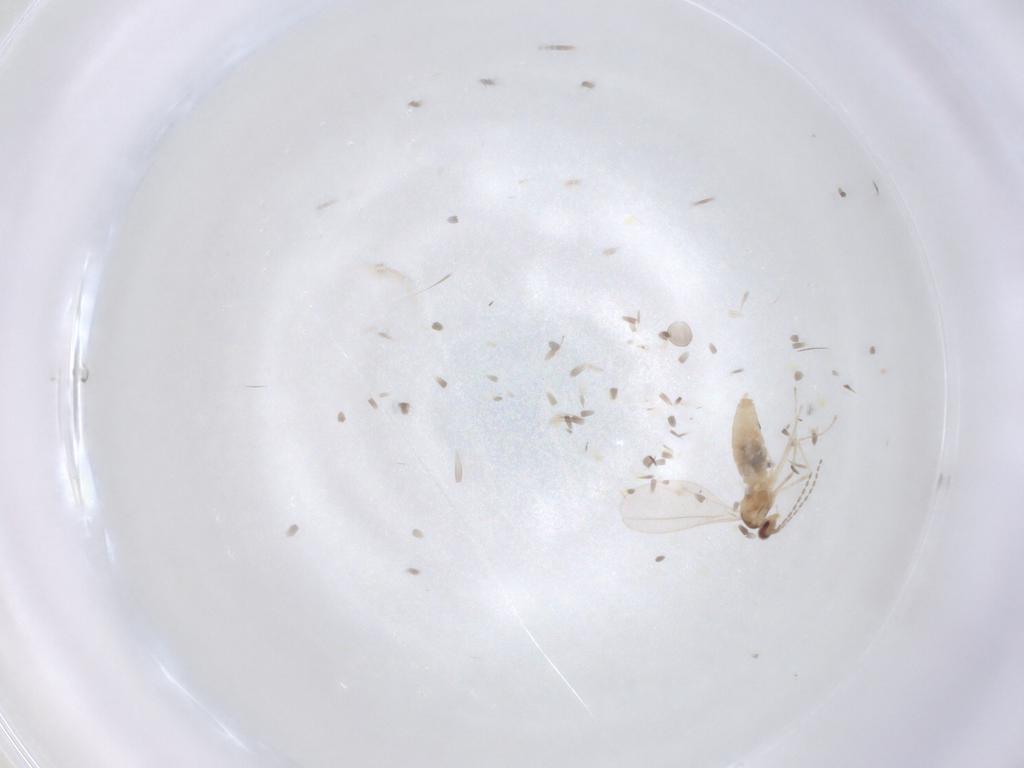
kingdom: Animalia
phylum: Arthropoda
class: Insecta
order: Diptera
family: Cecidomyiidae
